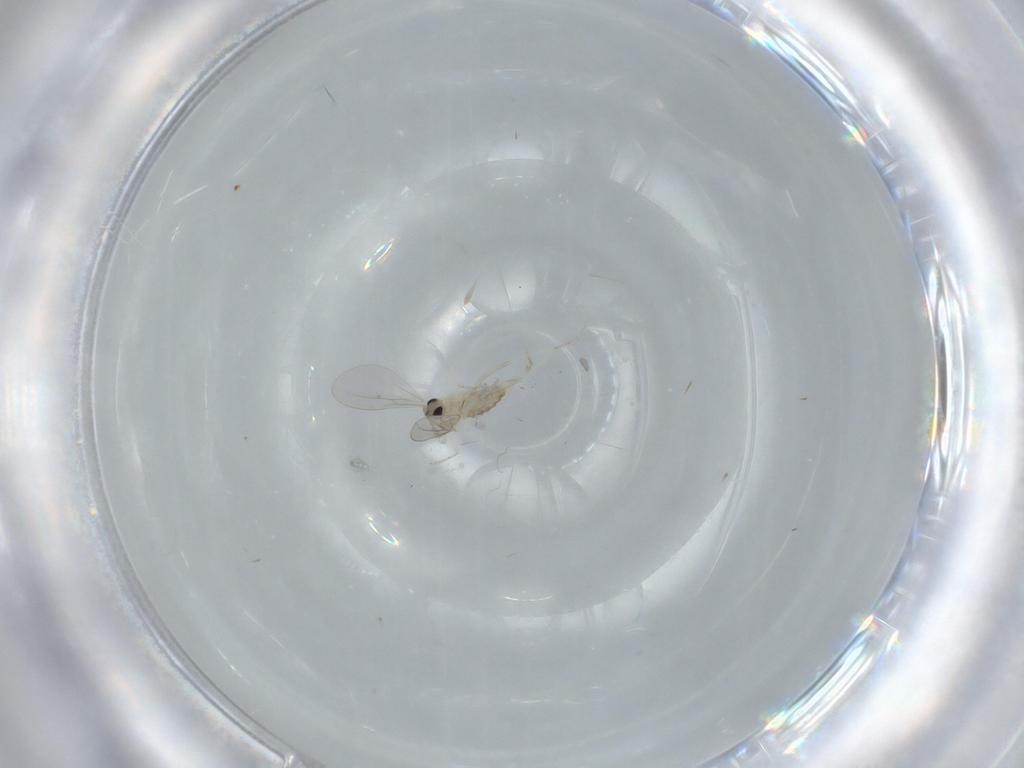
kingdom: Animalia
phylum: Arthropoda
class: Insecta
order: Diptera
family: Cecidomyiidae
